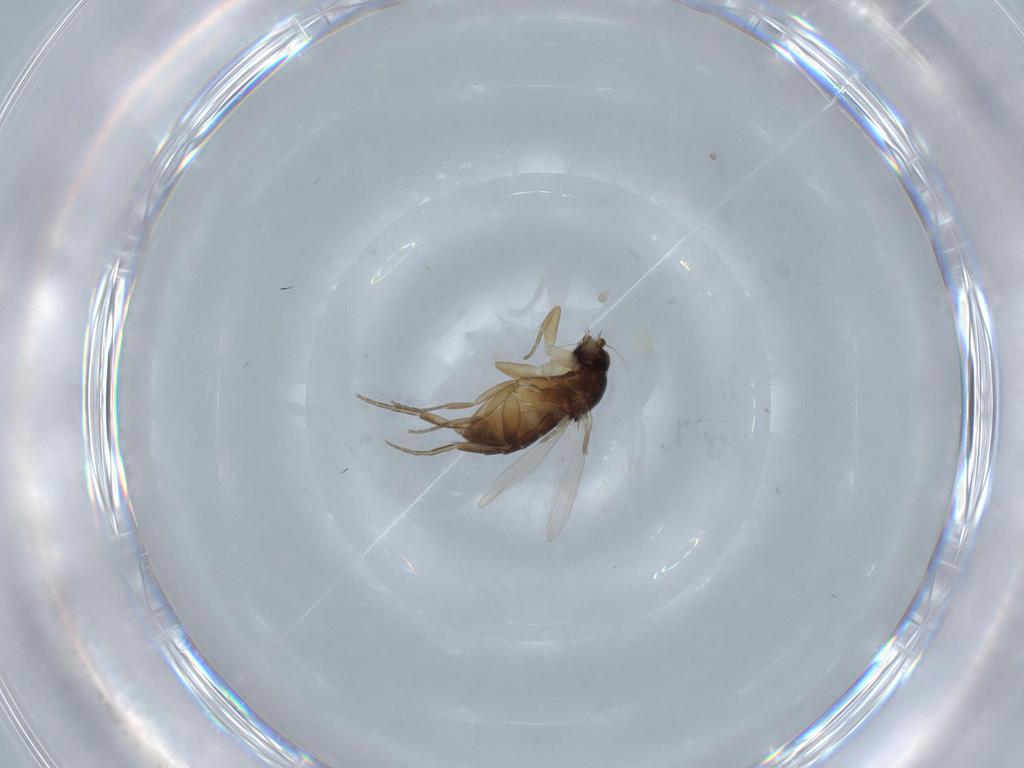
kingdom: Animalia
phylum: Arthropoda
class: Insecta
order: Diptera
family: Phoridae
